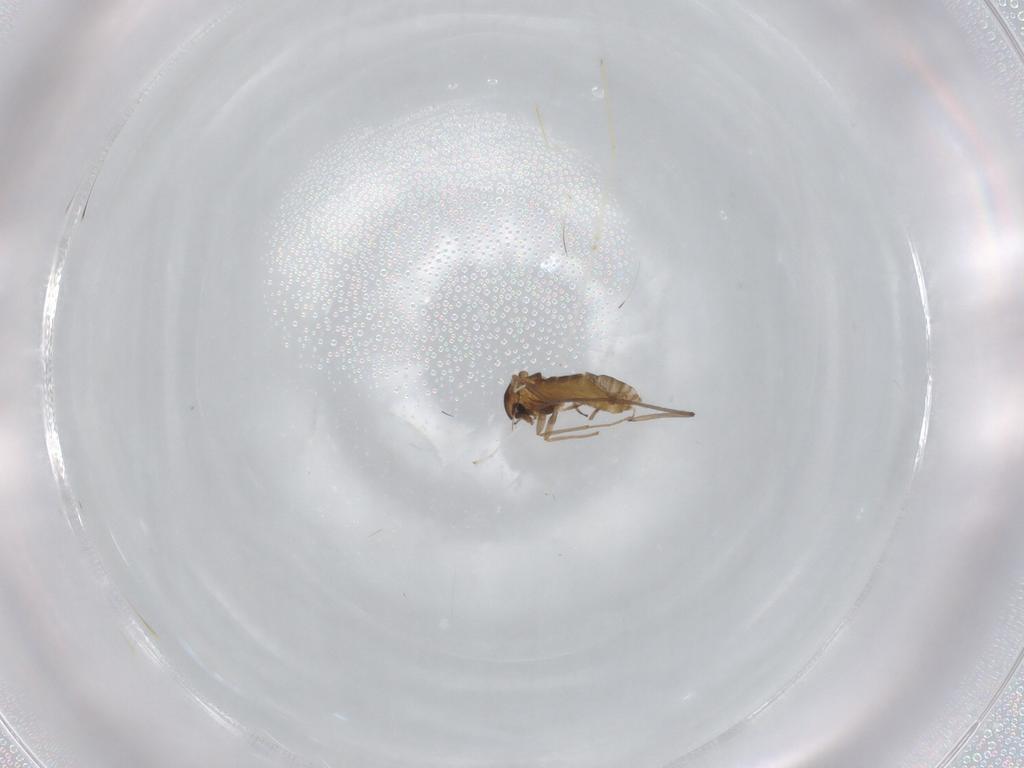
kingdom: Animalia
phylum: Arthropoda
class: Insecta
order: Diptera
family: Chironomidae
